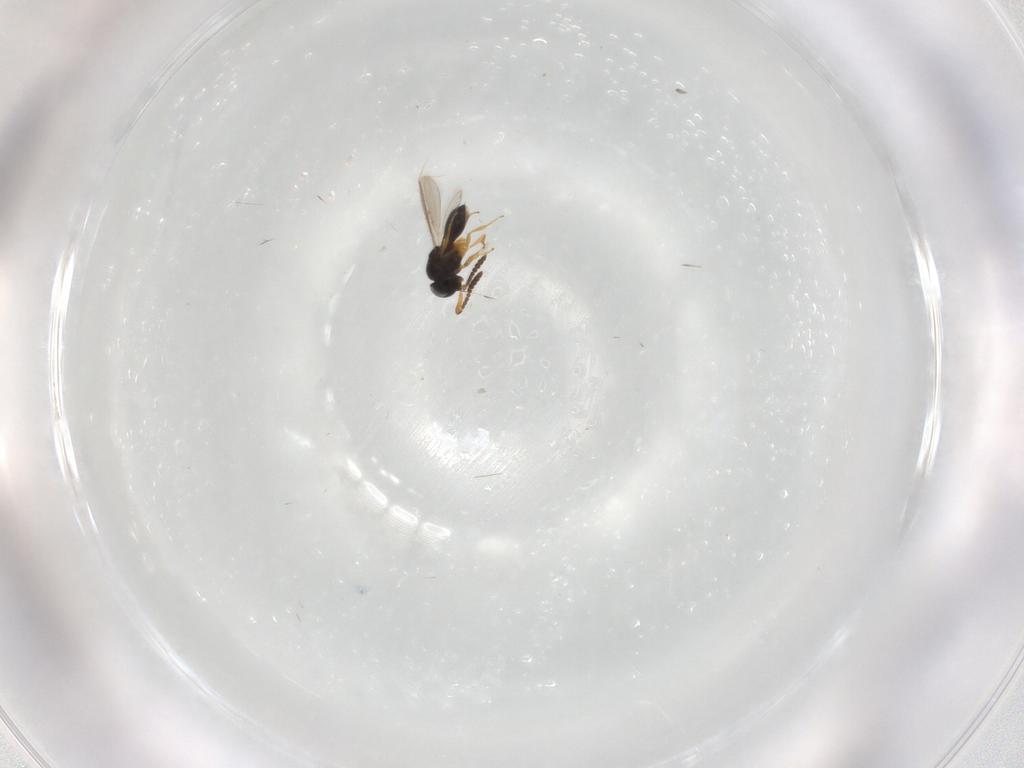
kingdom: Animalia
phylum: Arthropoda
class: Insecta
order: Hymenoptera
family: Scelionidae
